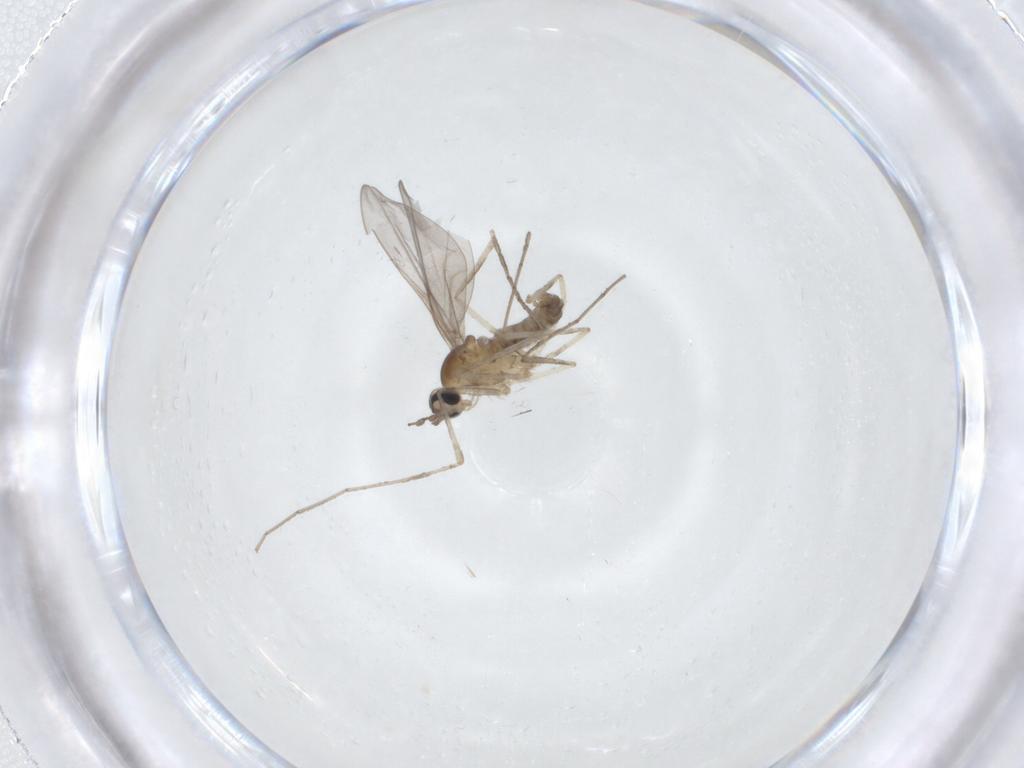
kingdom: Animalia
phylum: Arthropoda
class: Insecta
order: Diptera
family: Cecidomyiidae
